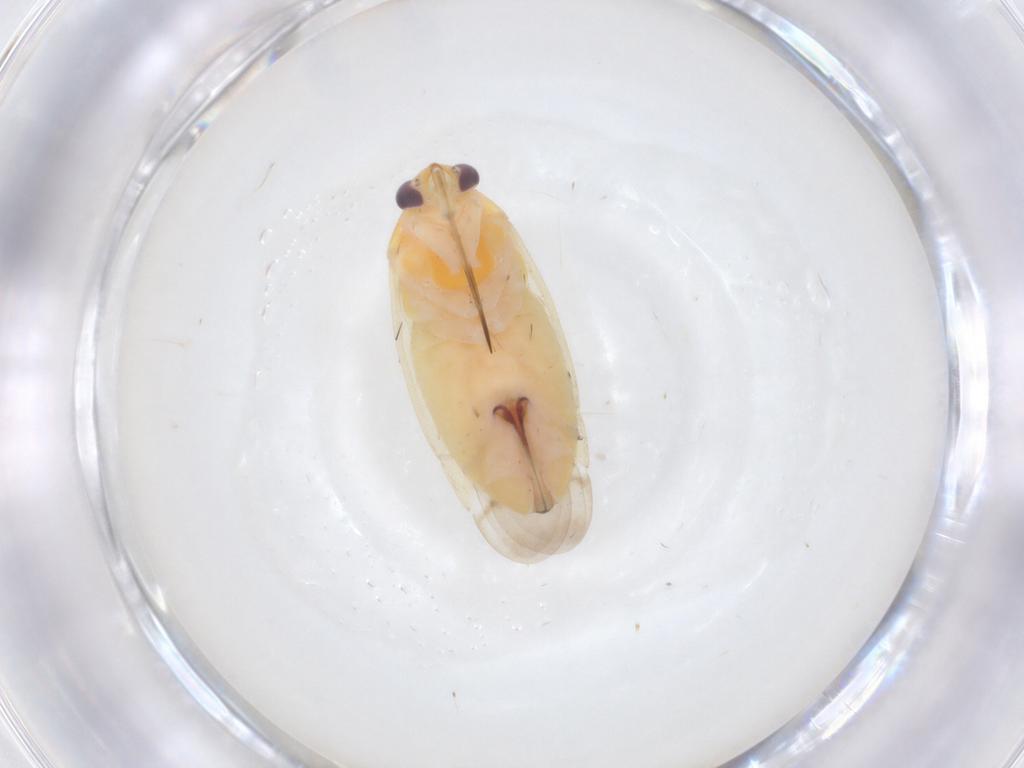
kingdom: Animalia
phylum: Arthropoda
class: Insecta
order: Hemiptera
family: Miridae
